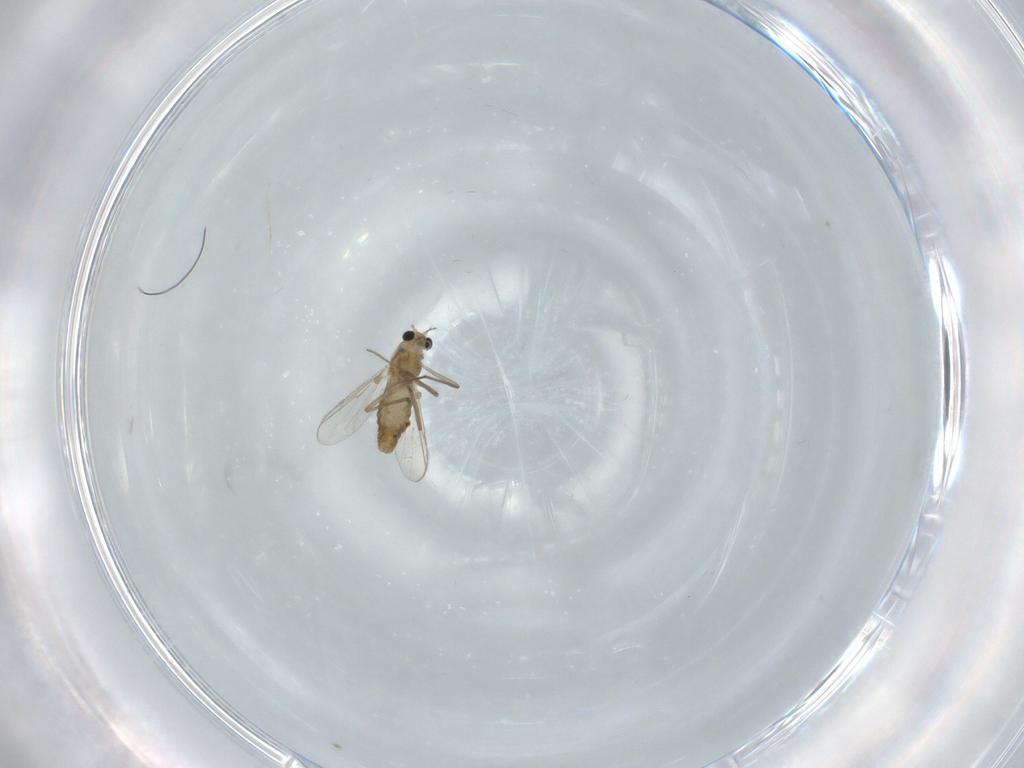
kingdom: Animalia
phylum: Arthropoda
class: Insecta
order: Diptera
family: Chironomidae
